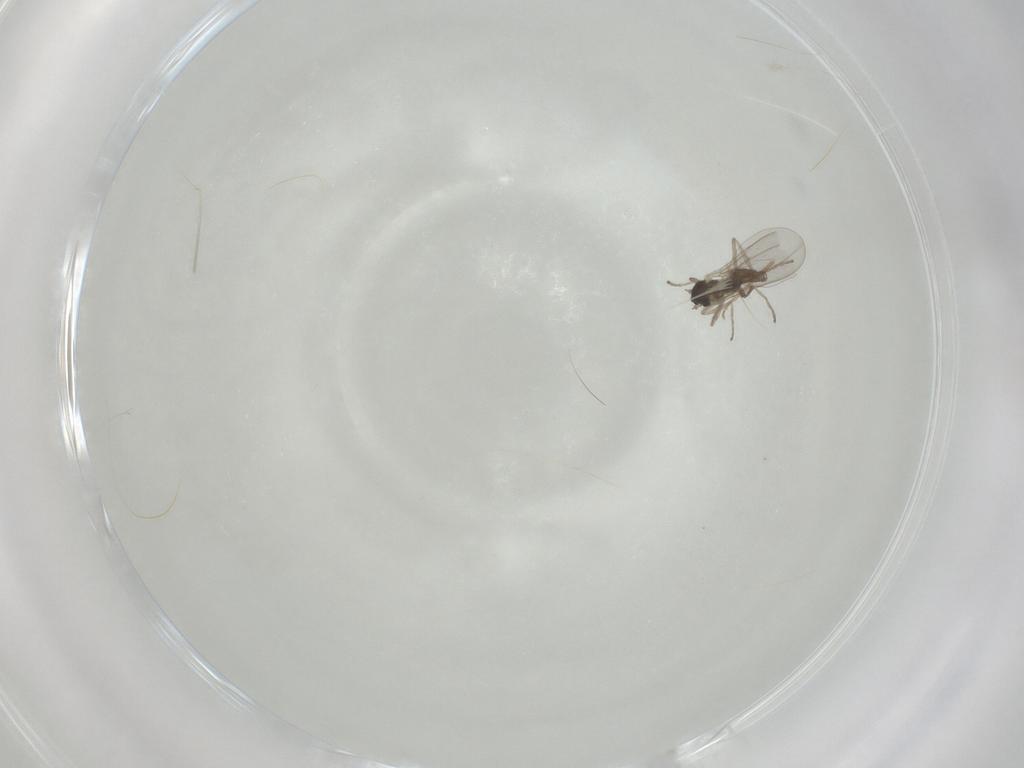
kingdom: Animalia
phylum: Arthropoda
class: Insecta
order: Diptera
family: Cecidomyiidae
